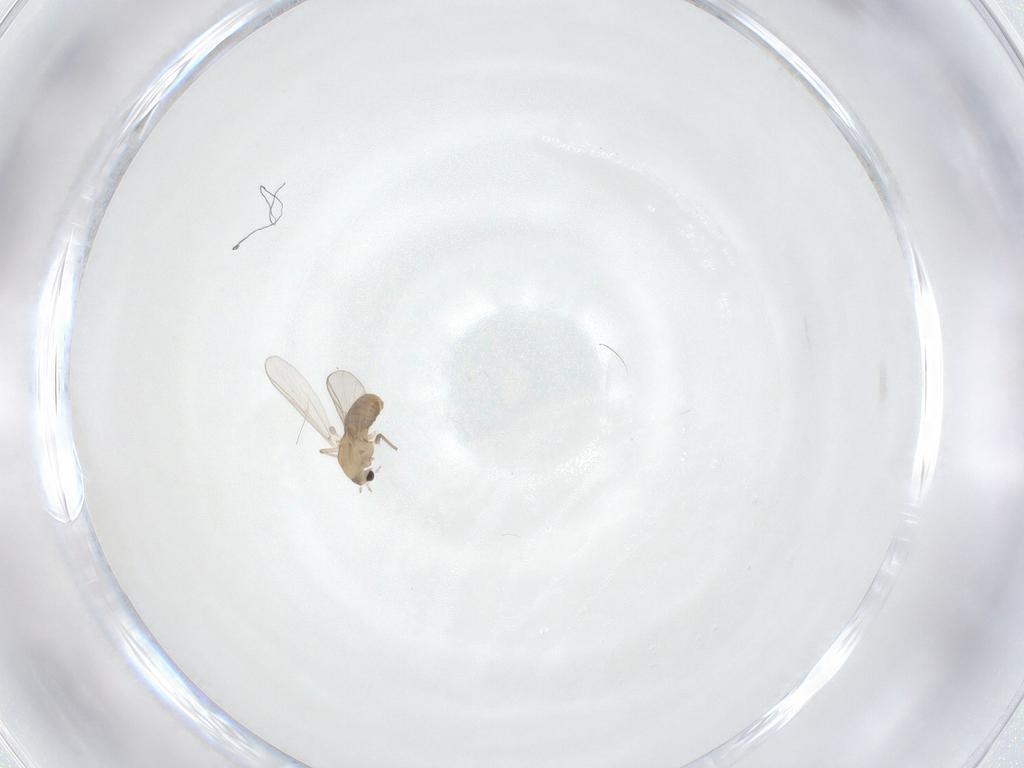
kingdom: Animalia
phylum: Arthropoda
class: Insecta
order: Diptera
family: Chironomidae
